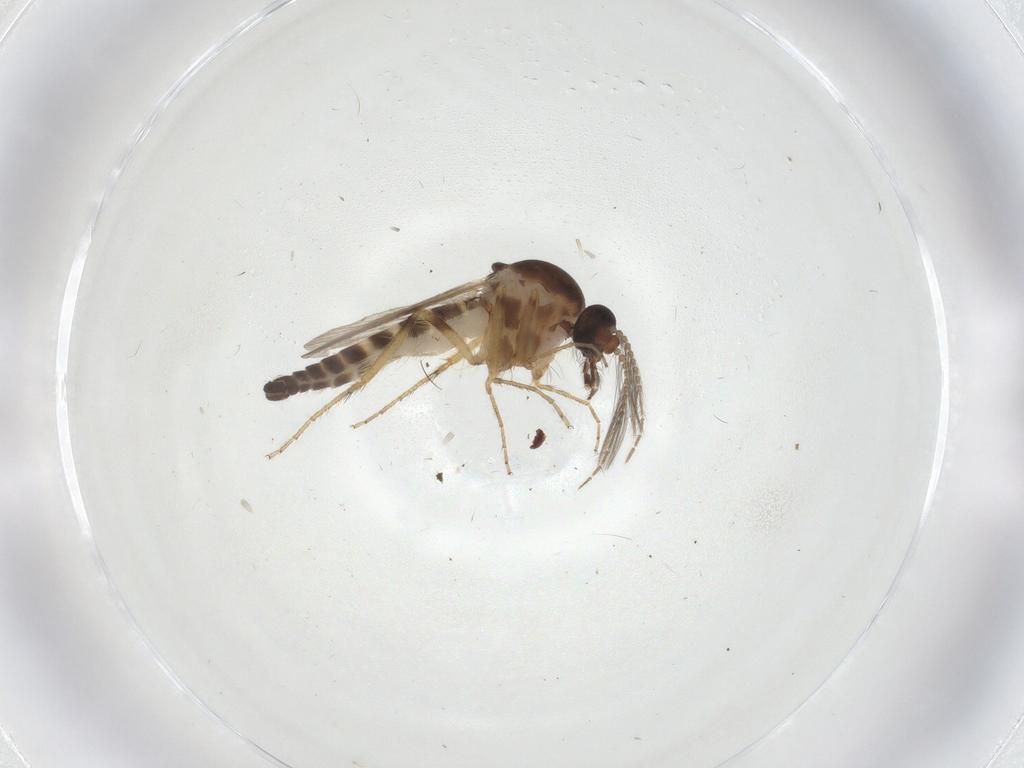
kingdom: Animalia
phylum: Arthropoda
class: Insecta
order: Diptera
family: Ceratopogonidae
